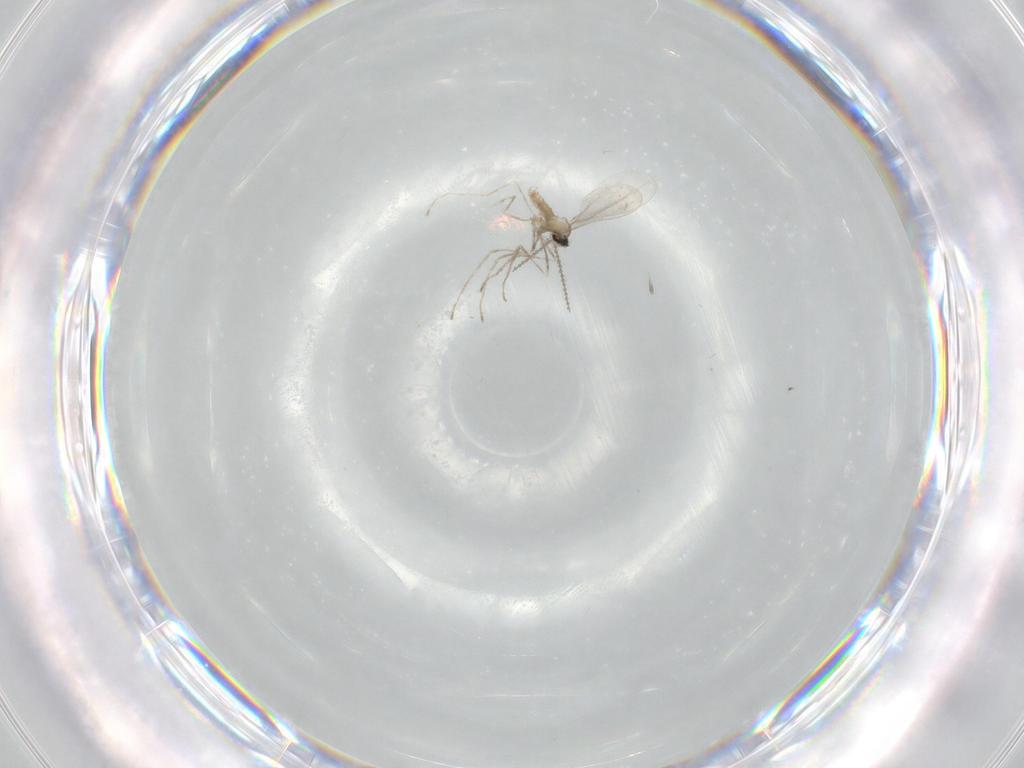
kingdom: Animalia
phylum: Arthropoda
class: Insecta
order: Diptera
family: Cecidomyiidae
